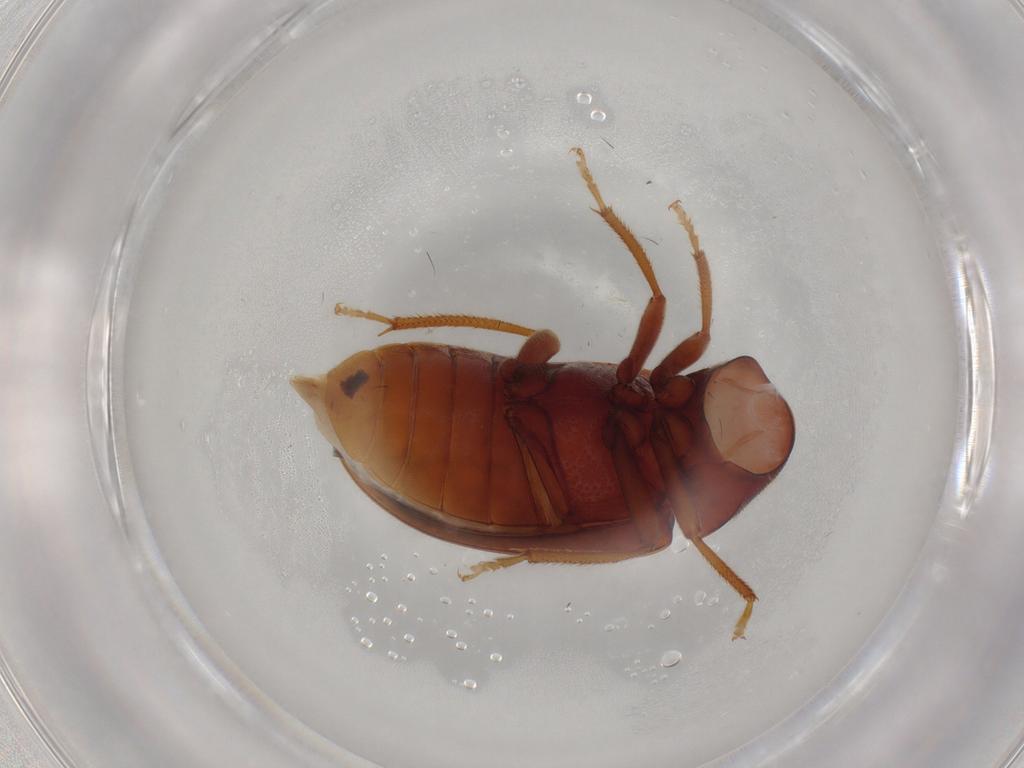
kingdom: Animalia
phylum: Arthropoda
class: Insecta
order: Coleoptera
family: Ptilodactylidae
